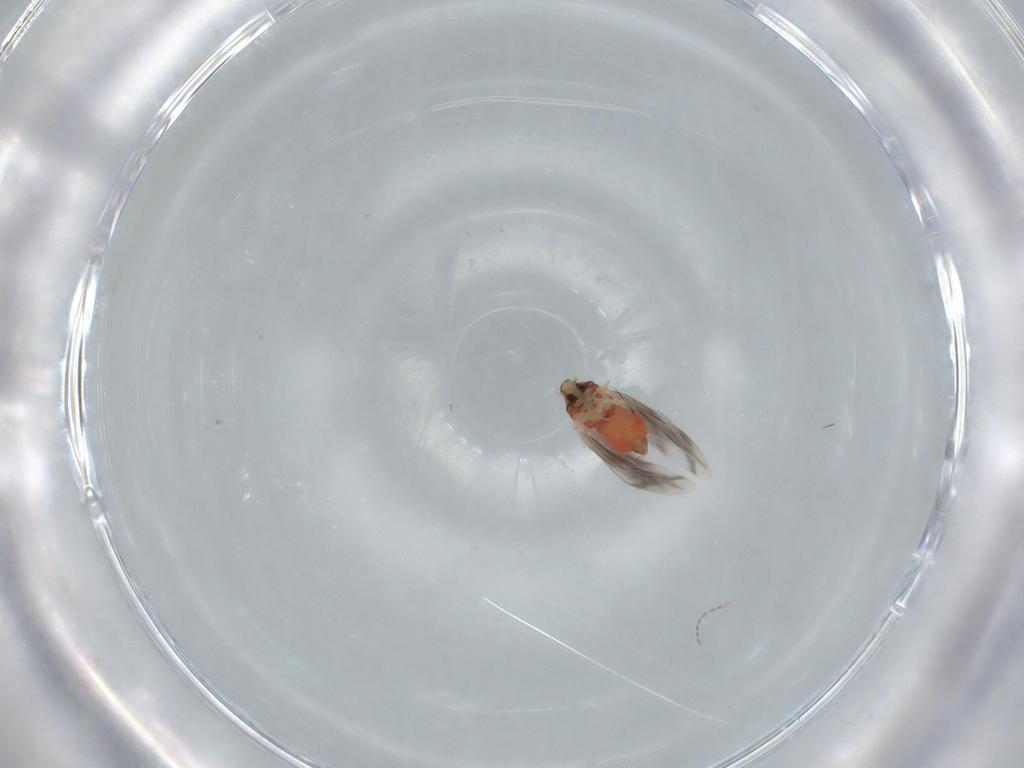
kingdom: Animalia
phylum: Arthropoda
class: Insecta
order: Hemiptera
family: Aleyrodidae
